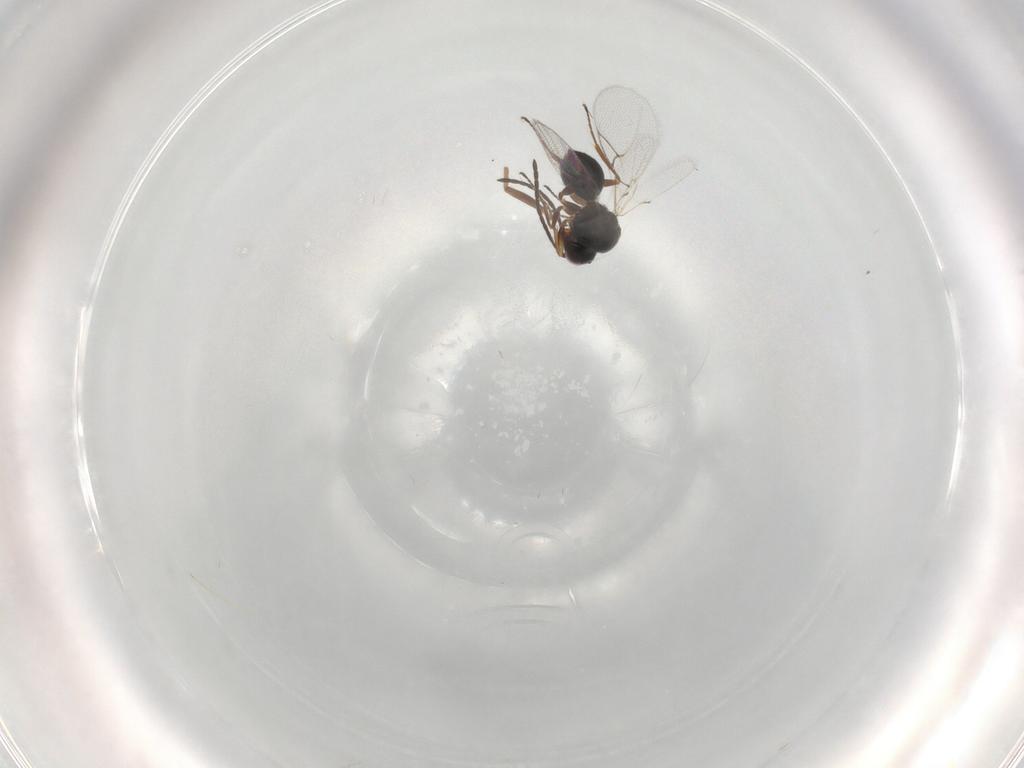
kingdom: Animalia
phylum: Arthropoda
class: Insecta
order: Hymenoptera
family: Figitidae
